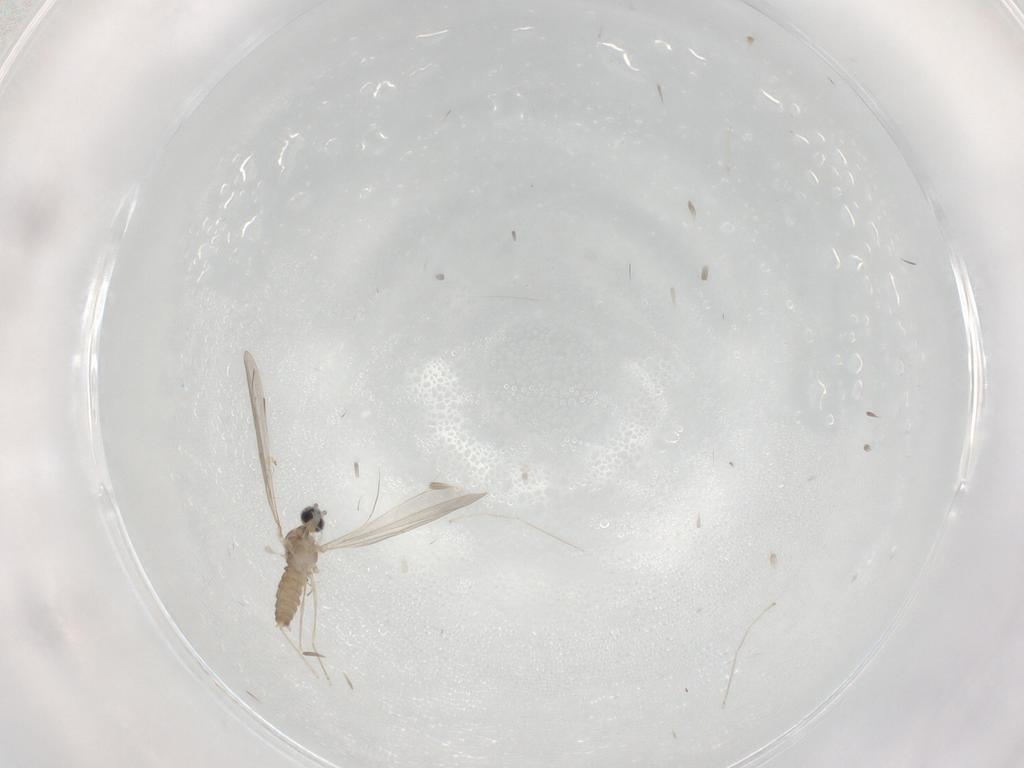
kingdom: Animalia
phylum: Arthropoda
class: Insecta
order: Diptera
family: Cecidomyiidae
